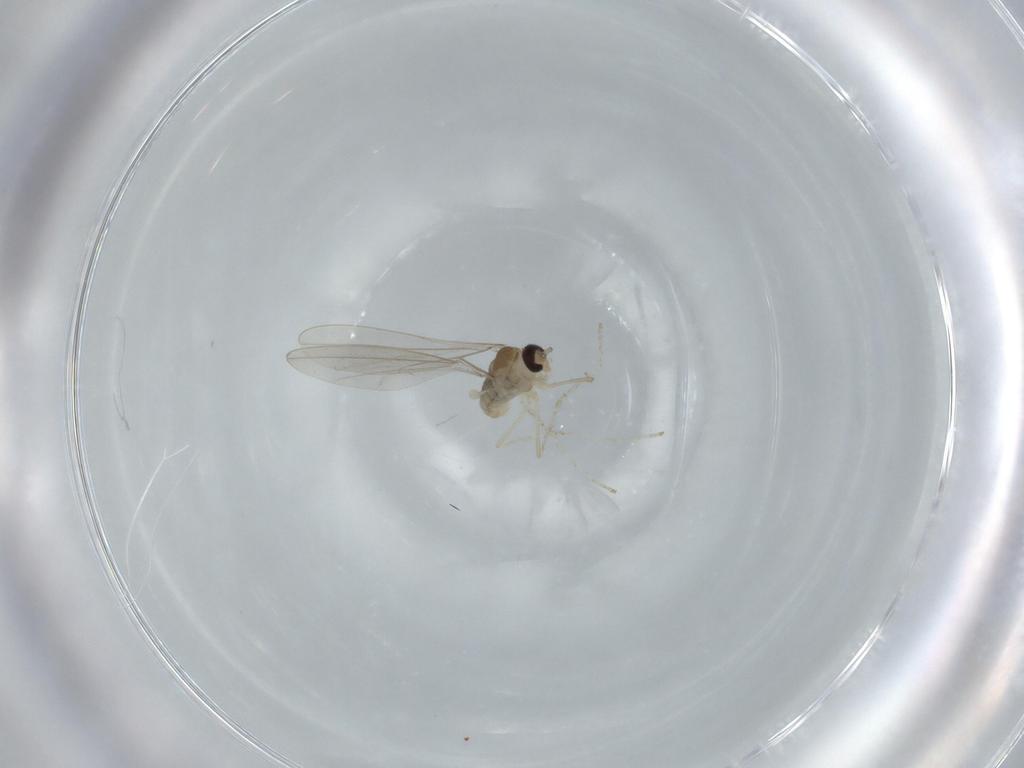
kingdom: Animalia
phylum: Arthropoda
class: Insecta
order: Diptera
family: Cecidomyiidae
